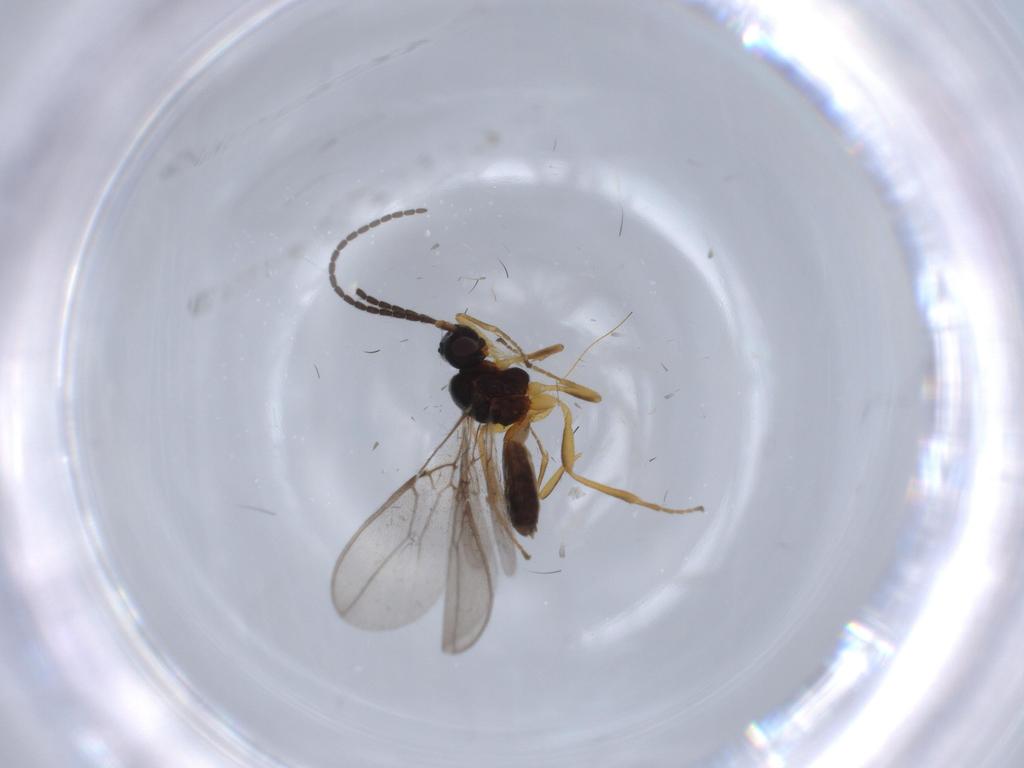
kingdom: Animalia
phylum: Arthropoda
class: Insecta
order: Hymenoptera
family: Braconidae
